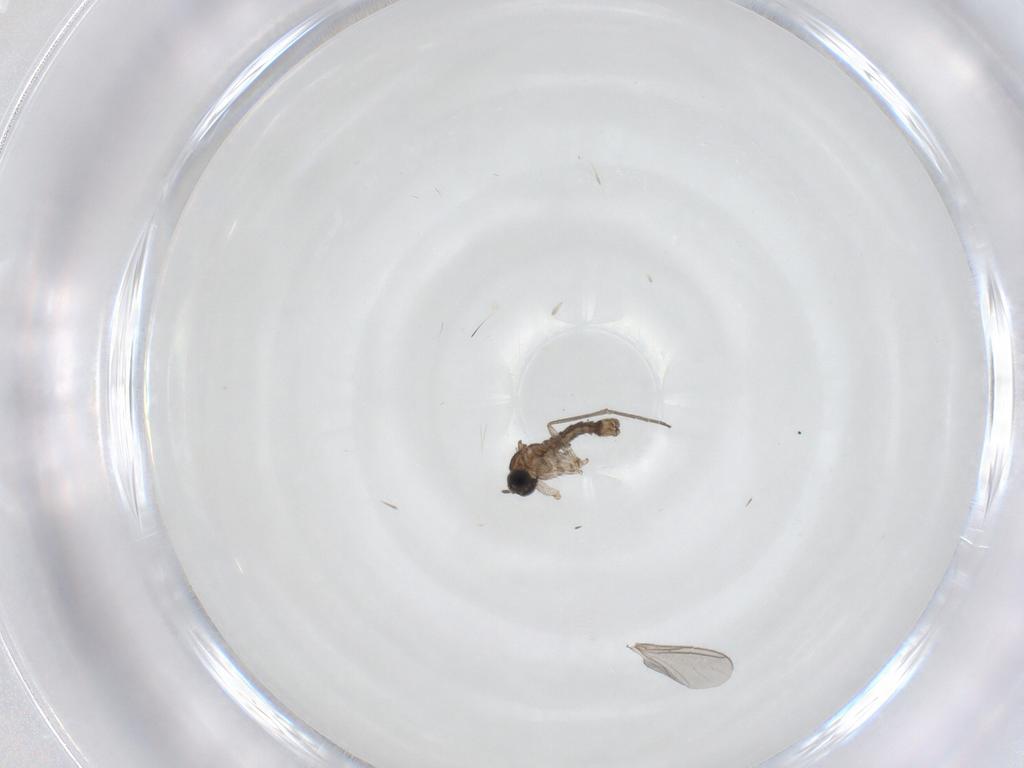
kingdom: Animalia
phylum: Arthropoda
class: Insecta
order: Diptera
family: Sciaridae
